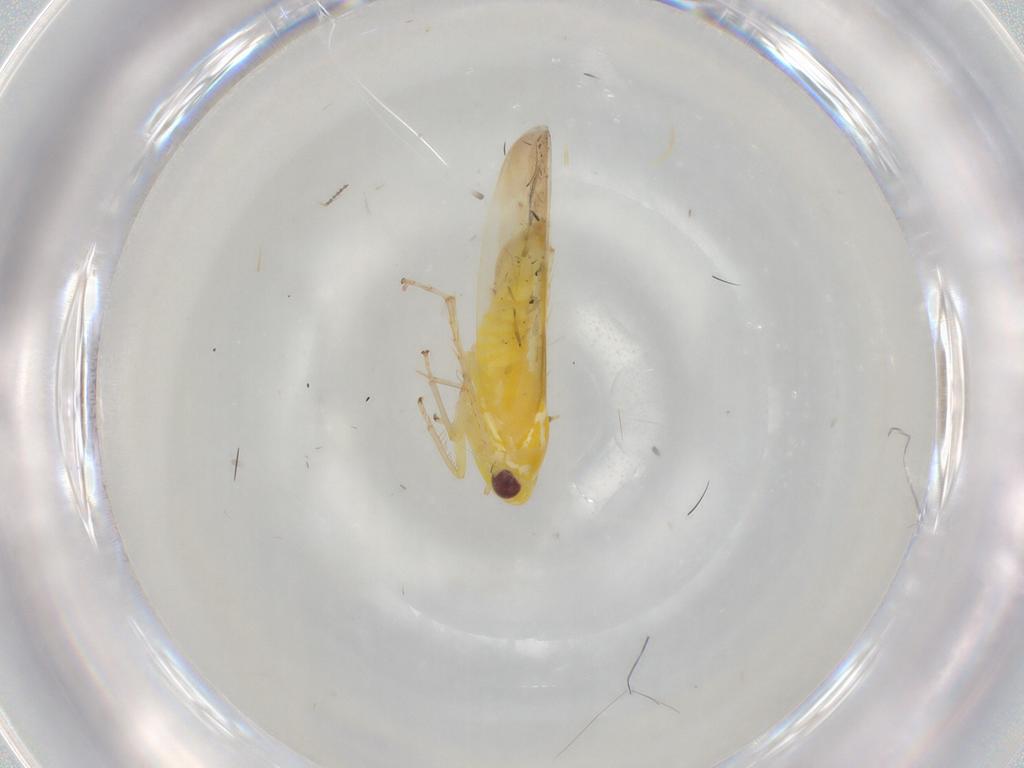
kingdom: Animalia
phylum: Arthropoda
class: Insecta
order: Hemiptera
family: Cicadellidae
